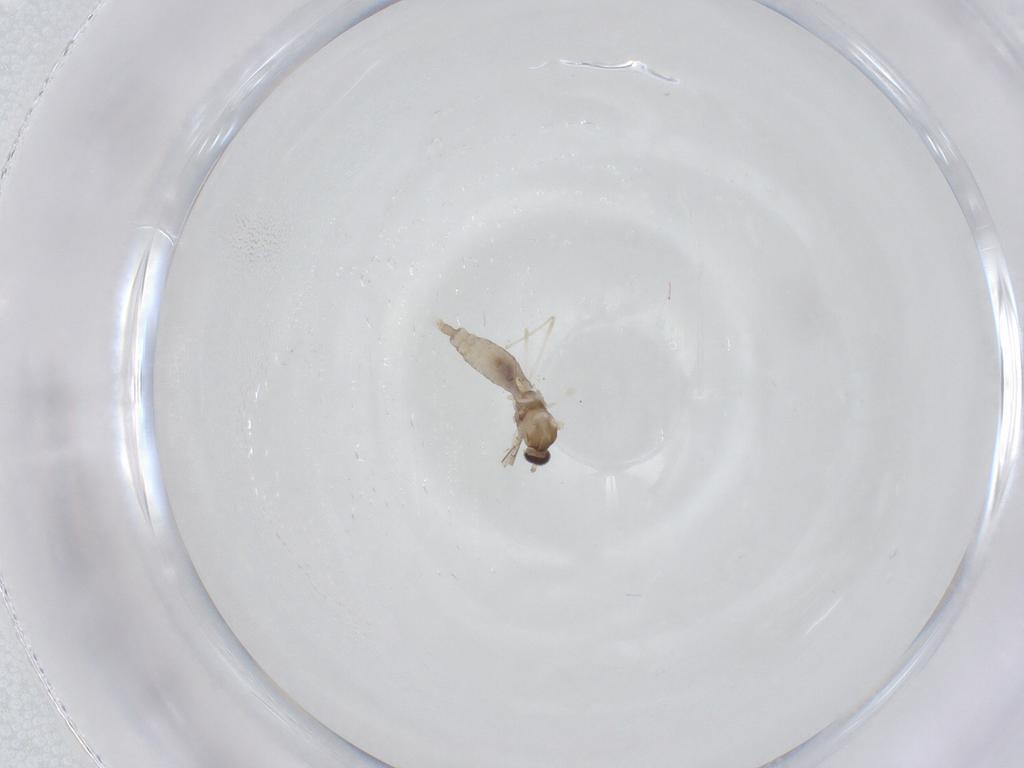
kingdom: Animalia
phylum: Arthropoda
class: Insecta
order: Diptera
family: Cecidomyiidae
